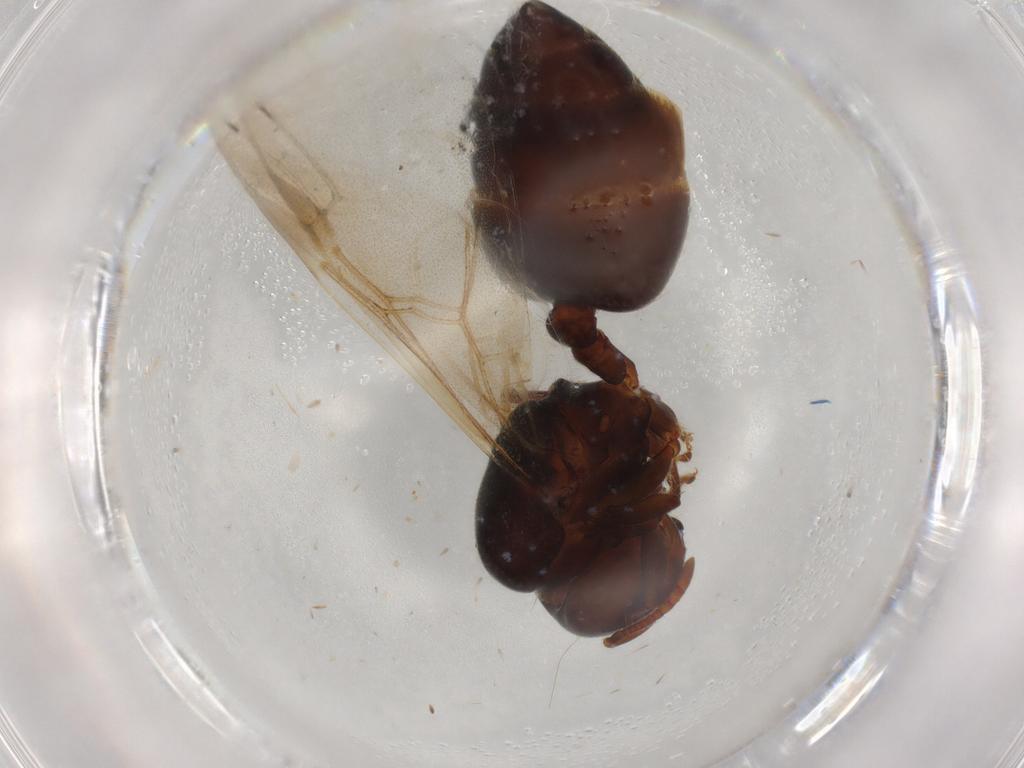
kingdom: Animalia
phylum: Arthropoda
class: Insecta
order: Hymenoptera
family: Formicidae
